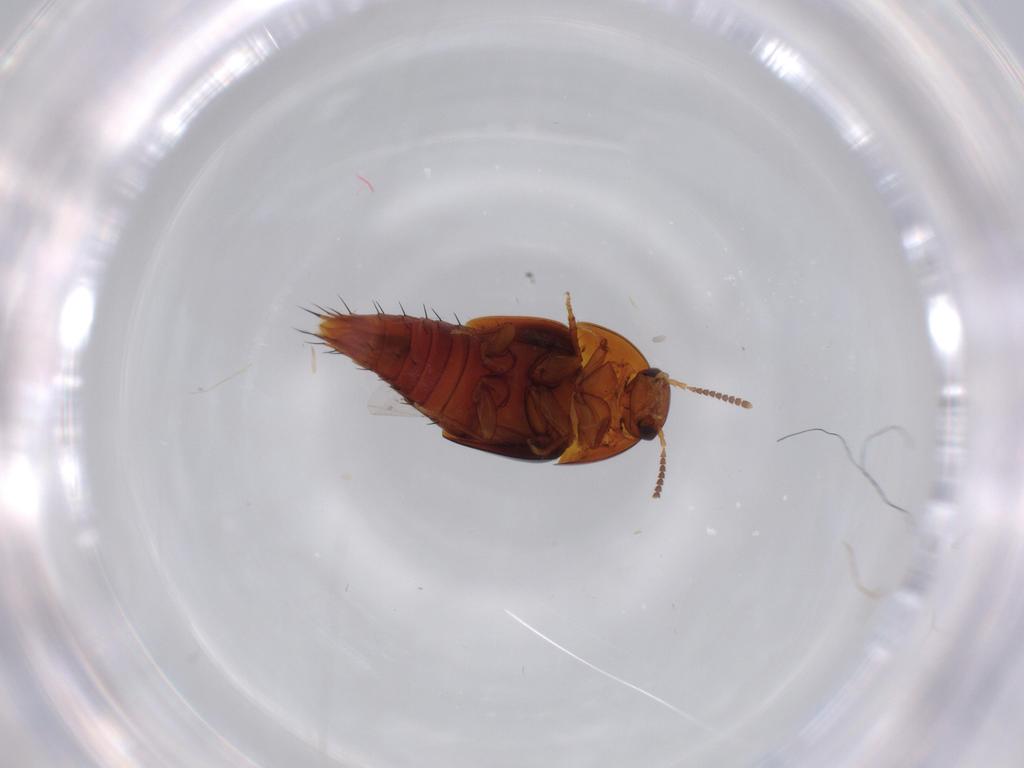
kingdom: Animalia
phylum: Arthropoda
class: Insecta
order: Coleoptera
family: Staphylinidae
